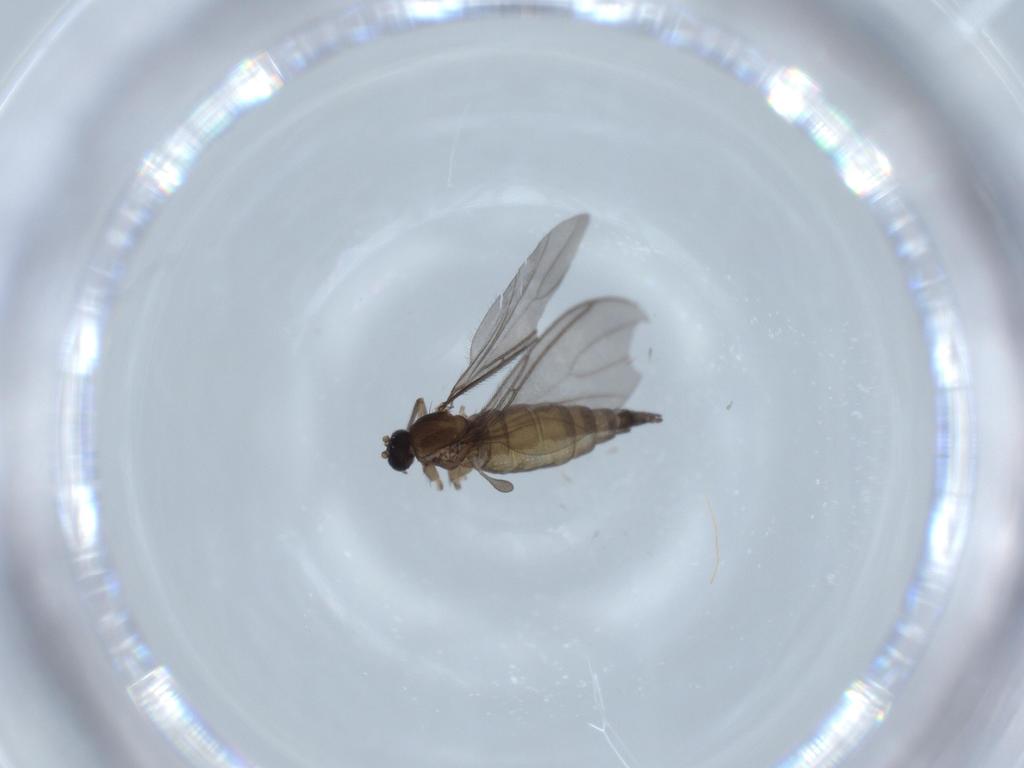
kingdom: Animalia
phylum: Arthropoda
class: Insecta
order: Diptera
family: Sciaridae
